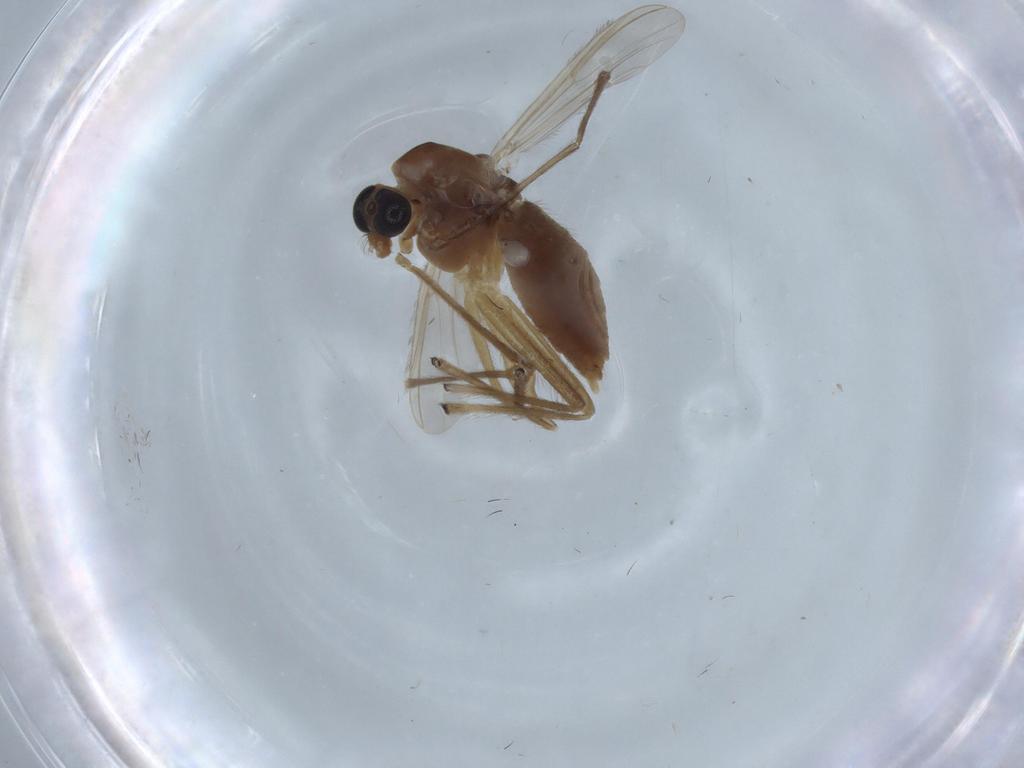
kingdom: Animalia
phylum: Arthropoda
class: Insecta
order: Diptera
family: Chironomidae
